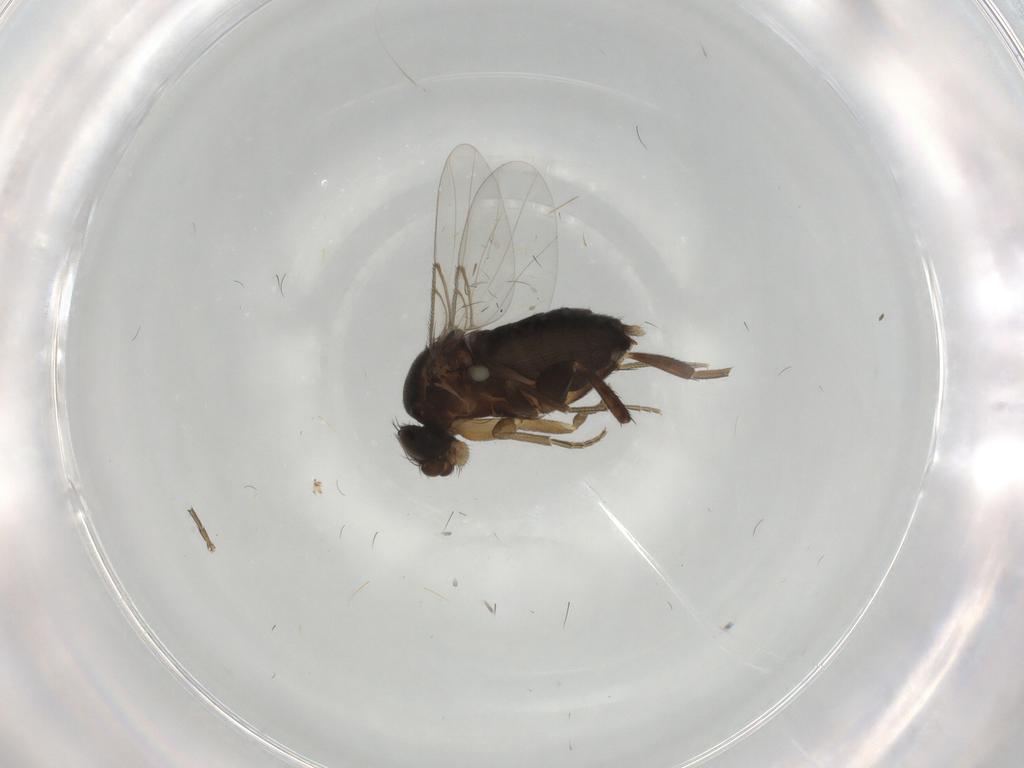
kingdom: Animalia
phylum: Arthropoda
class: Insecta
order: Diptera
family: Phoridae
